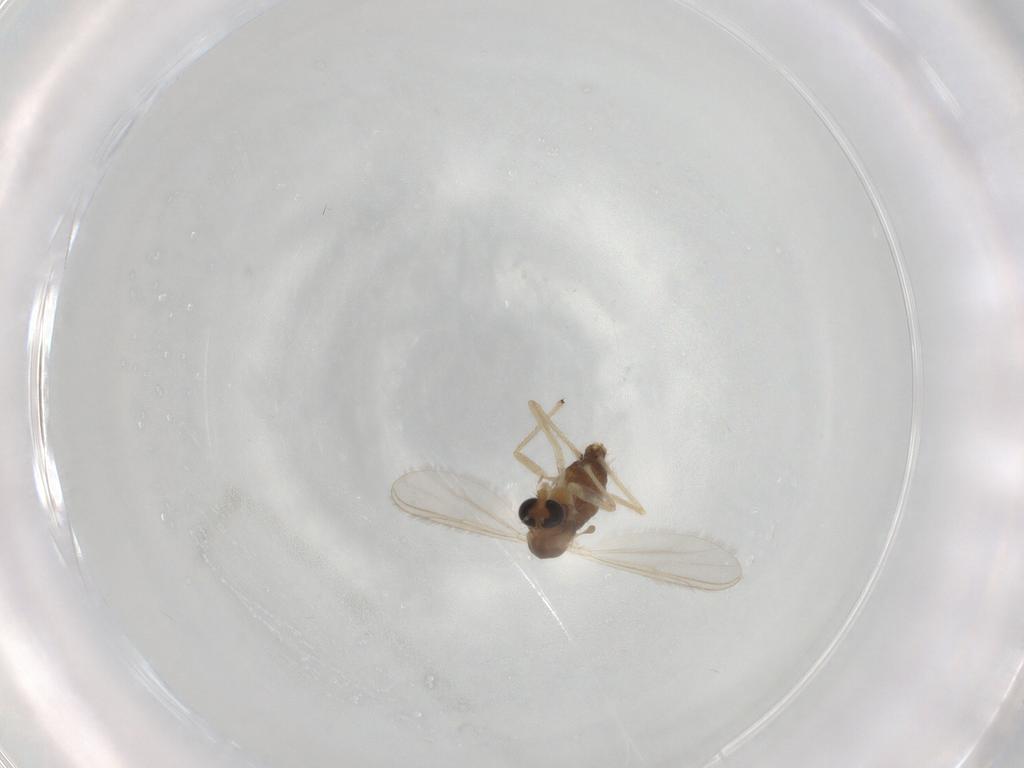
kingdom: Animalia
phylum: Arthropoda
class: Insecta
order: Diptera
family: Chironomidae
